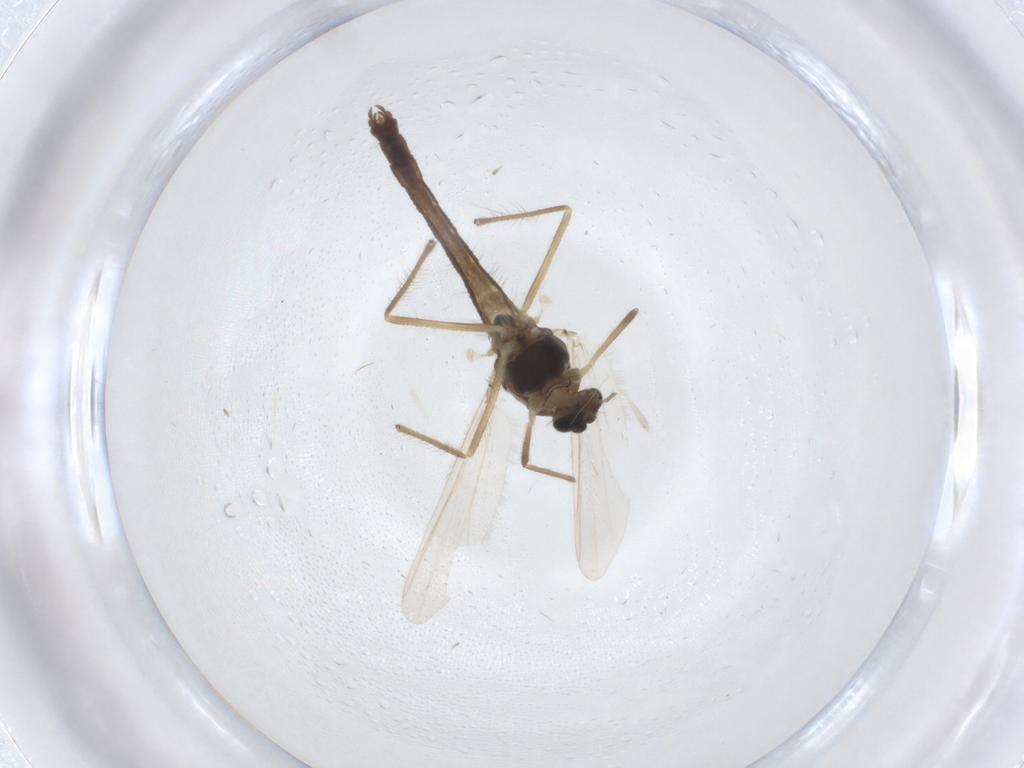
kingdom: Animalia
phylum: Arthropoda
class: Insecta
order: Diptera
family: Chironomidae
